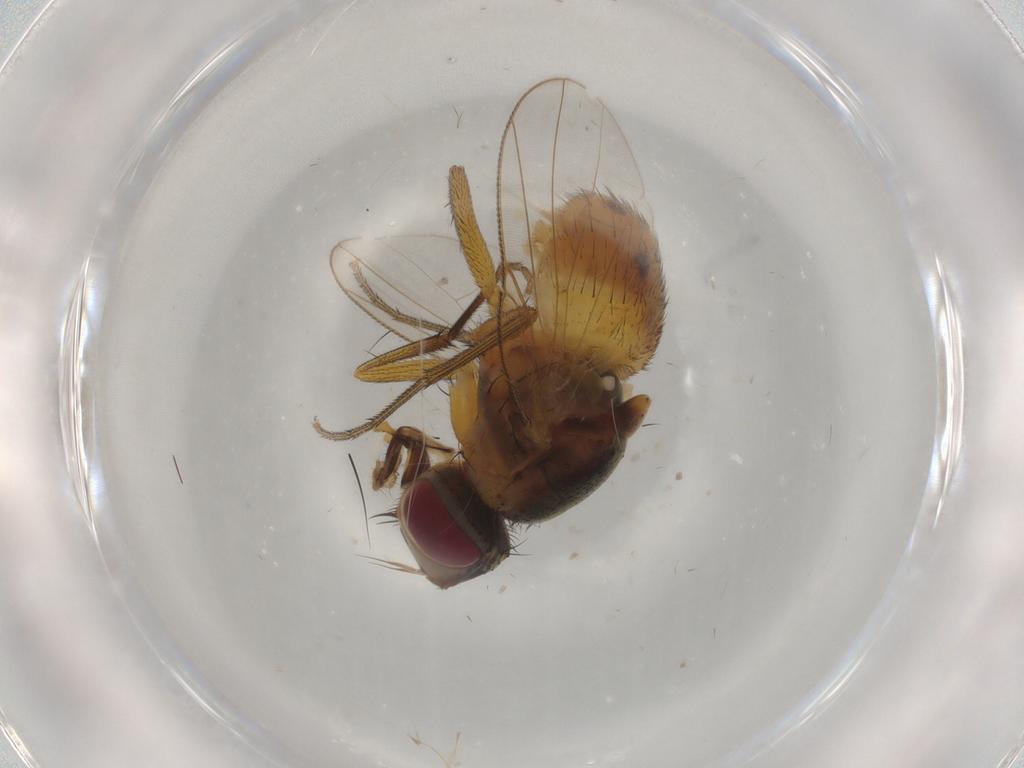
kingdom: Animalia
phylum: Arthropoda
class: Insecta
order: Diptera
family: Muscidae
